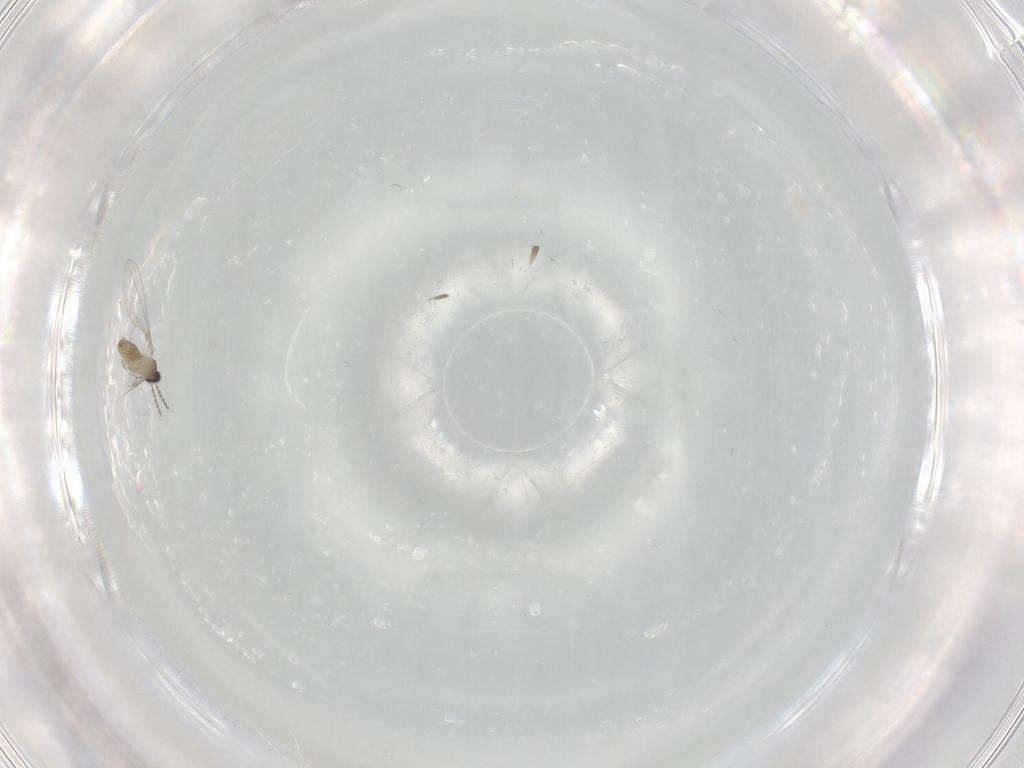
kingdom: Animalia
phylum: Arthropoda
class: Insecta
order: Diptera
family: Cecidomyiidae
